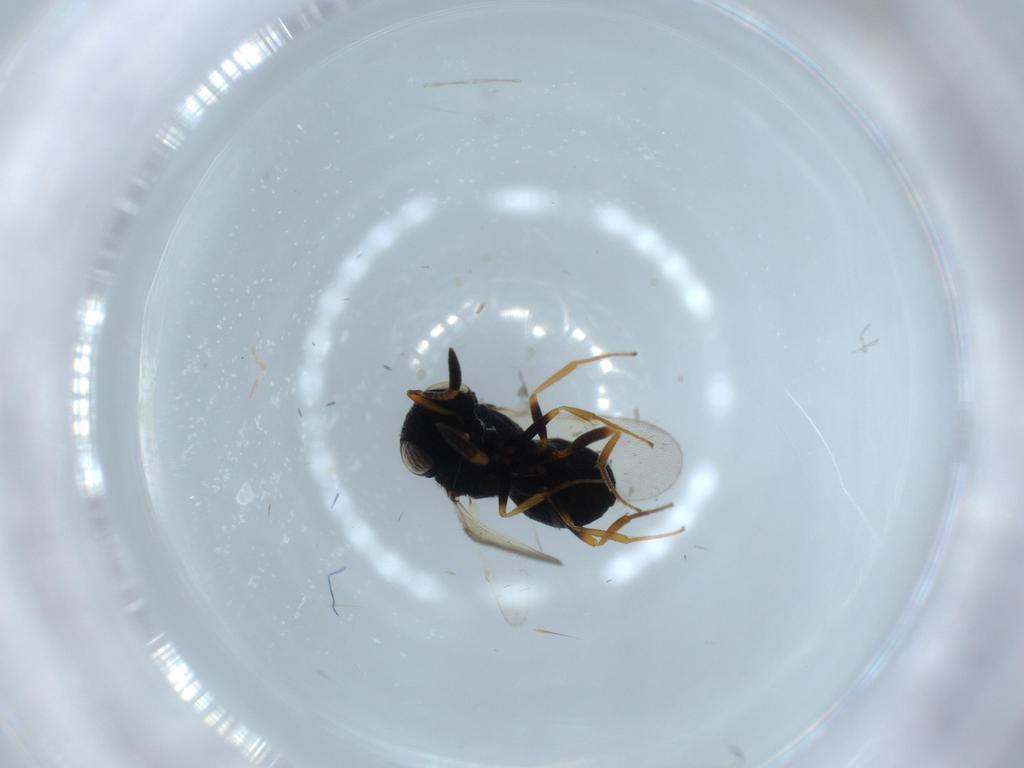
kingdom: Animalia
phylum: Arthropoda
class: Insecta
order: Hymenoptera
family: Scelionidae
